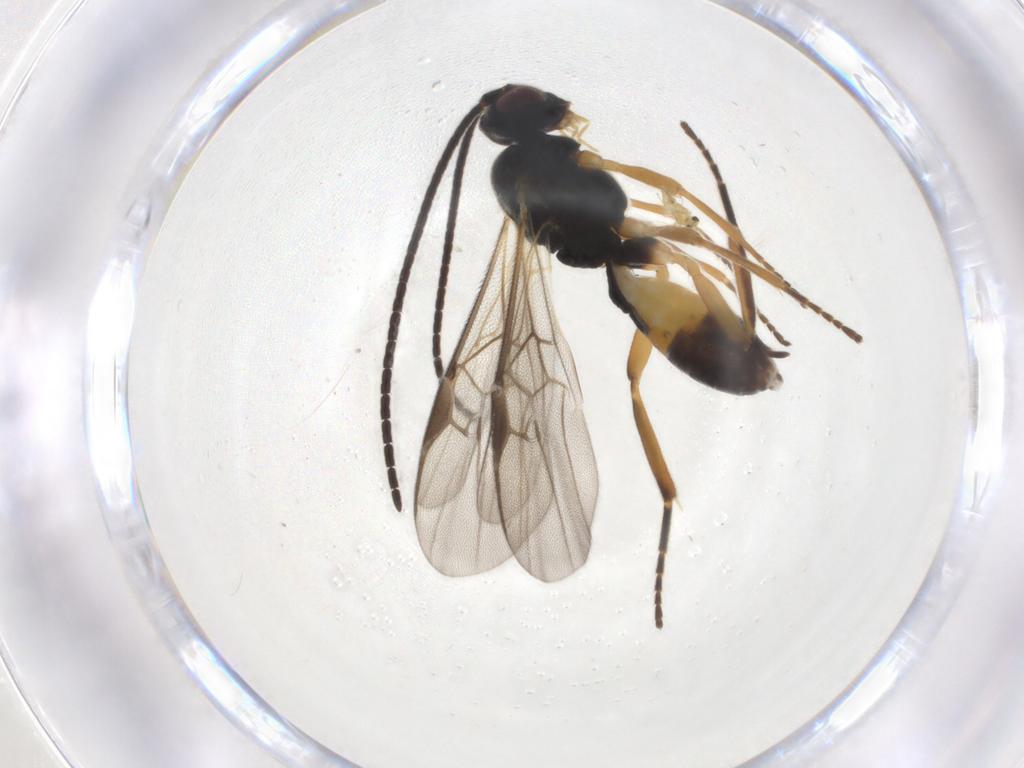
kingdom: Animalia
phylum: Arthropoda
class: Insecta
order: Hymenoptera
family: Braconidae
